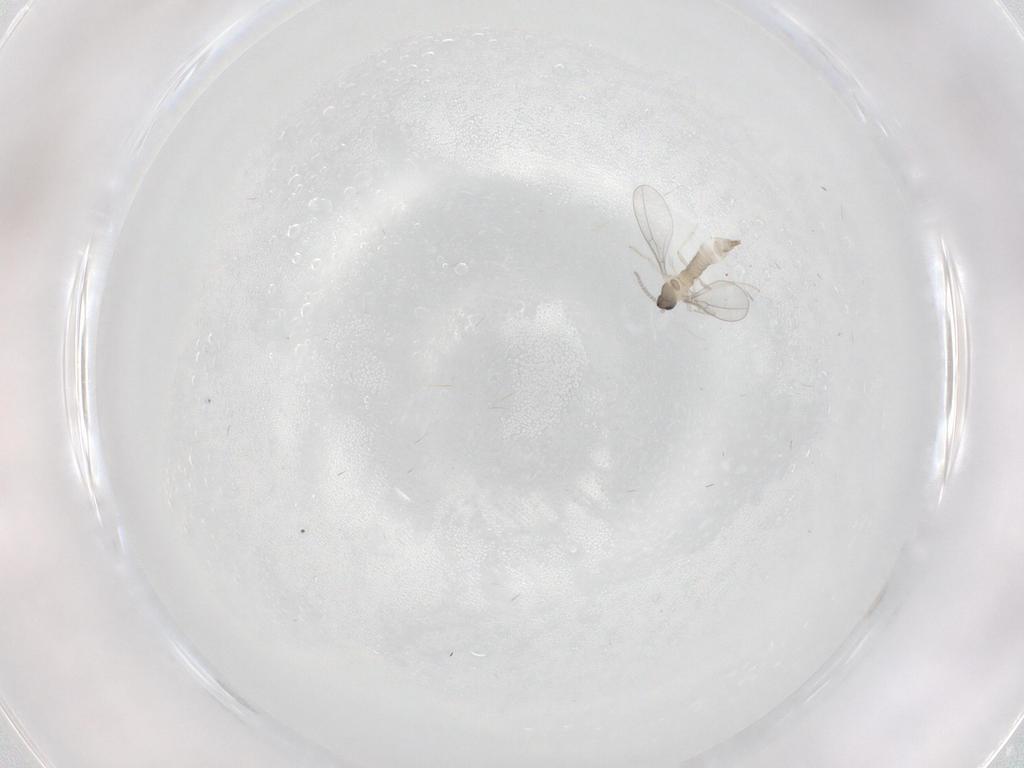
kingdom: Animalia
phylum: Arthropoda
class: Insecta
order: Diptera
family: Cecidomyiidae
